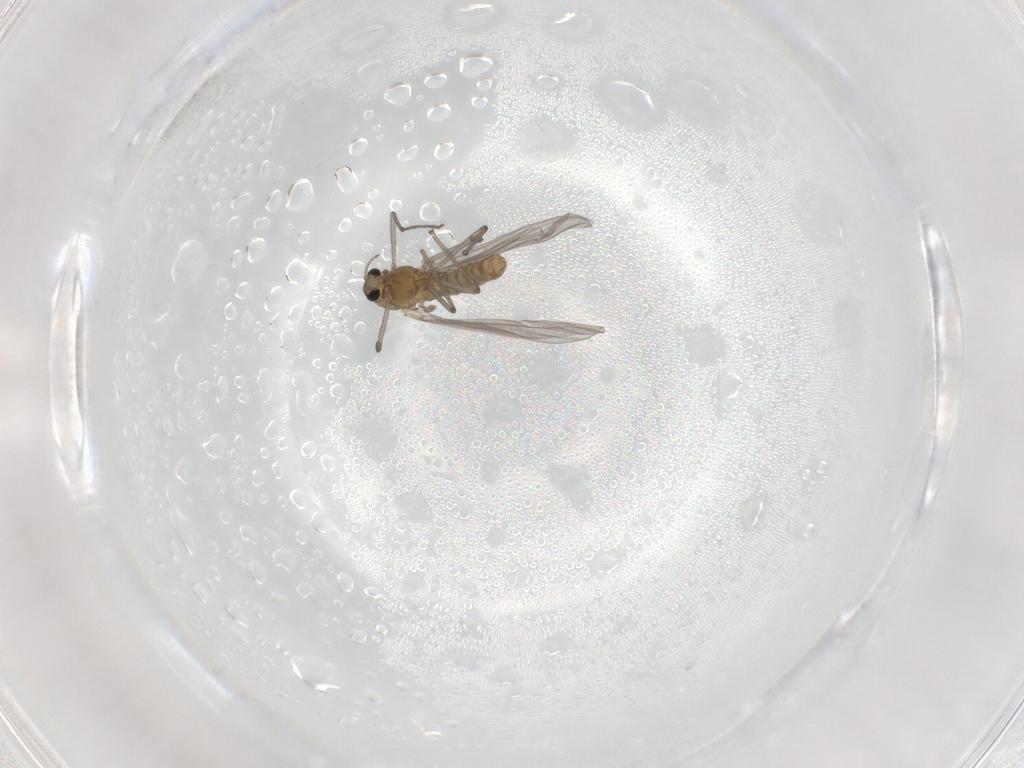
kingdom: Animalia
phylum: Arthropoda
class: Insecta
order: Diptera
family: Chironomidae
